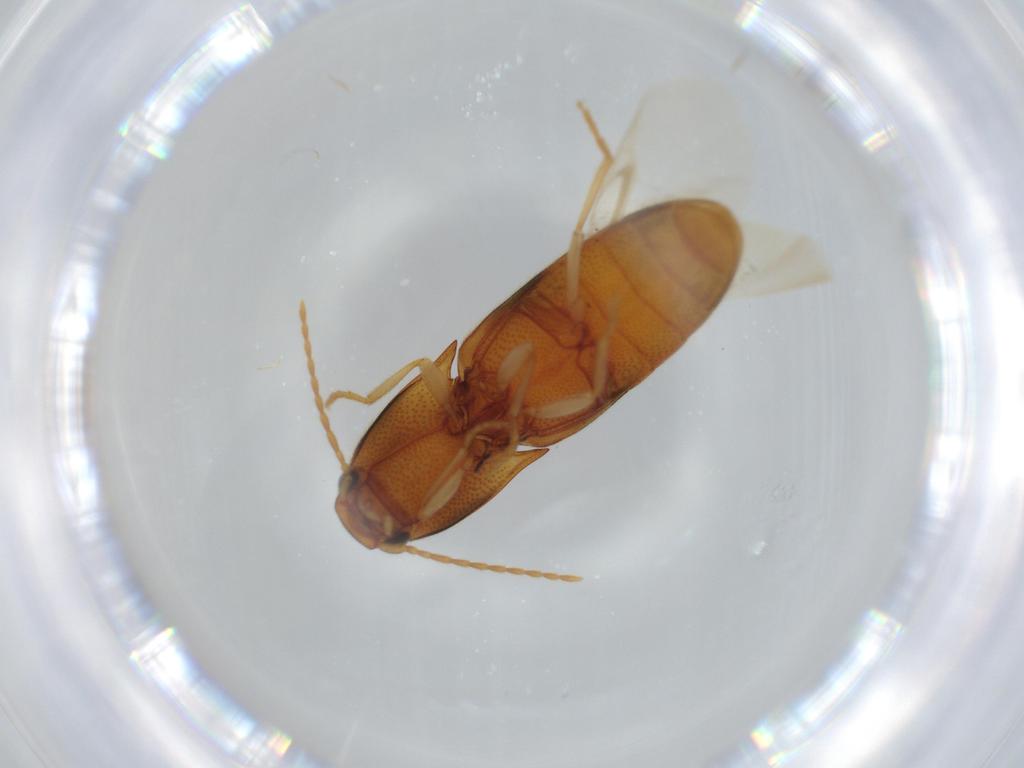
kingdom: Animalia
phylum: Arthropoda
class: Insecta
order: Coleoptera
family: Elateridae
